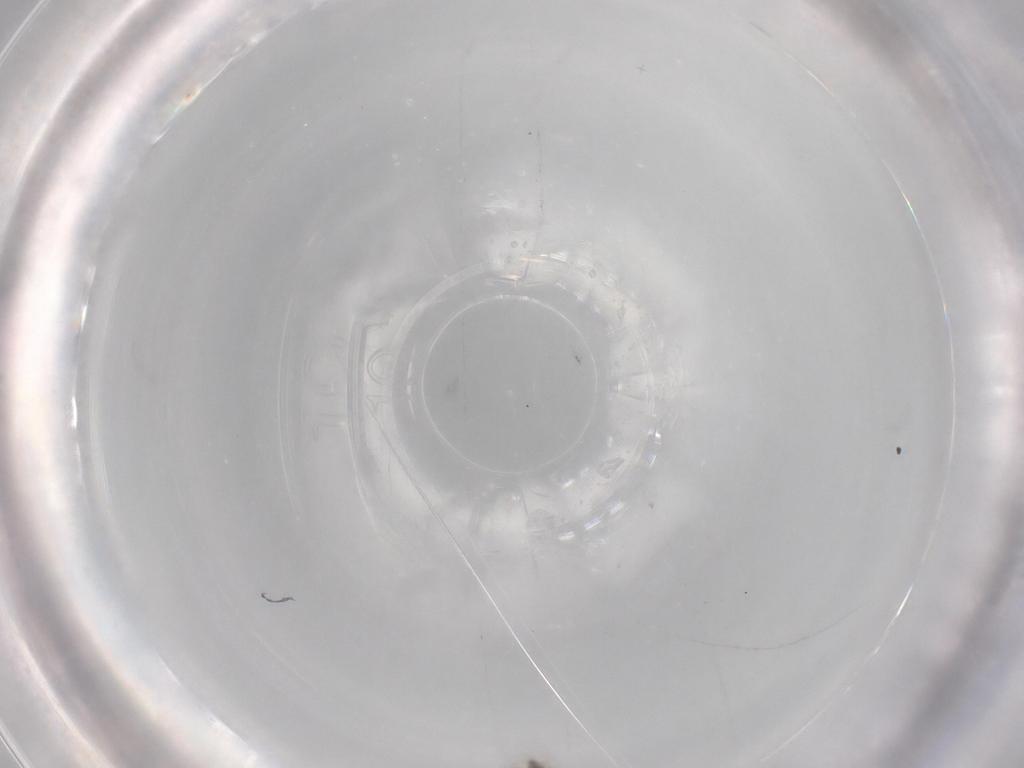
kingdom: Animalia
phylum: Arthropoda
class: Insecta
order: Diptera
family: Cecidomyiidae
